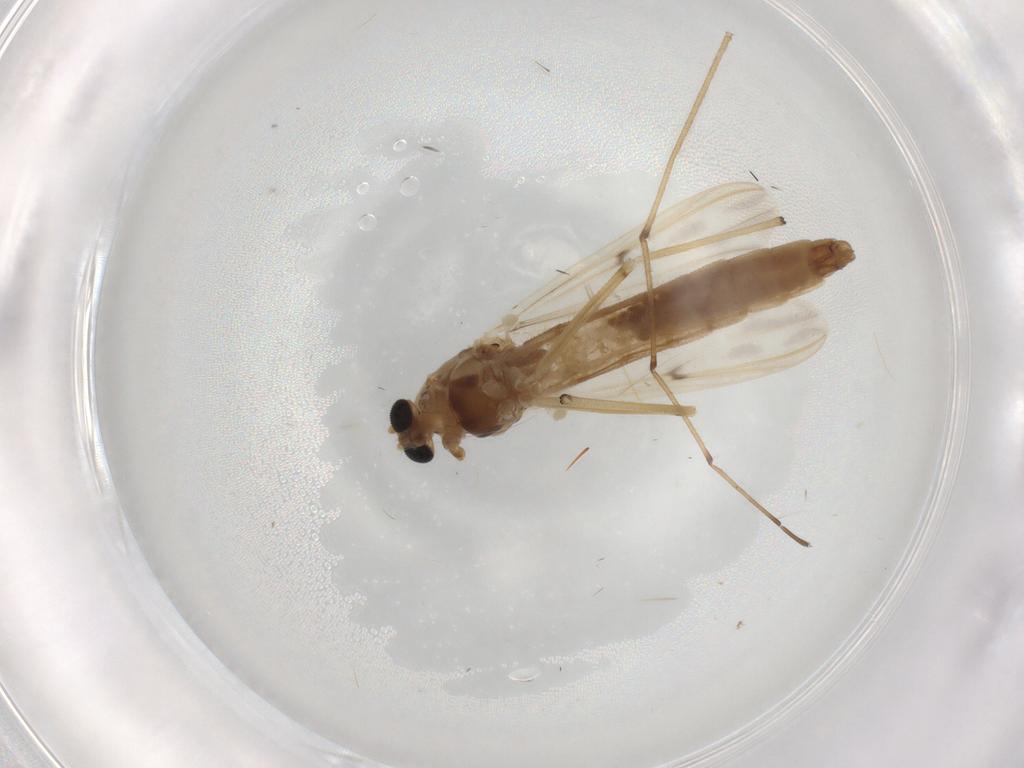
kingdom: Animalia
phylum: Arthropoda
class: Insecta
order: Diptera
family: Chironomidae
